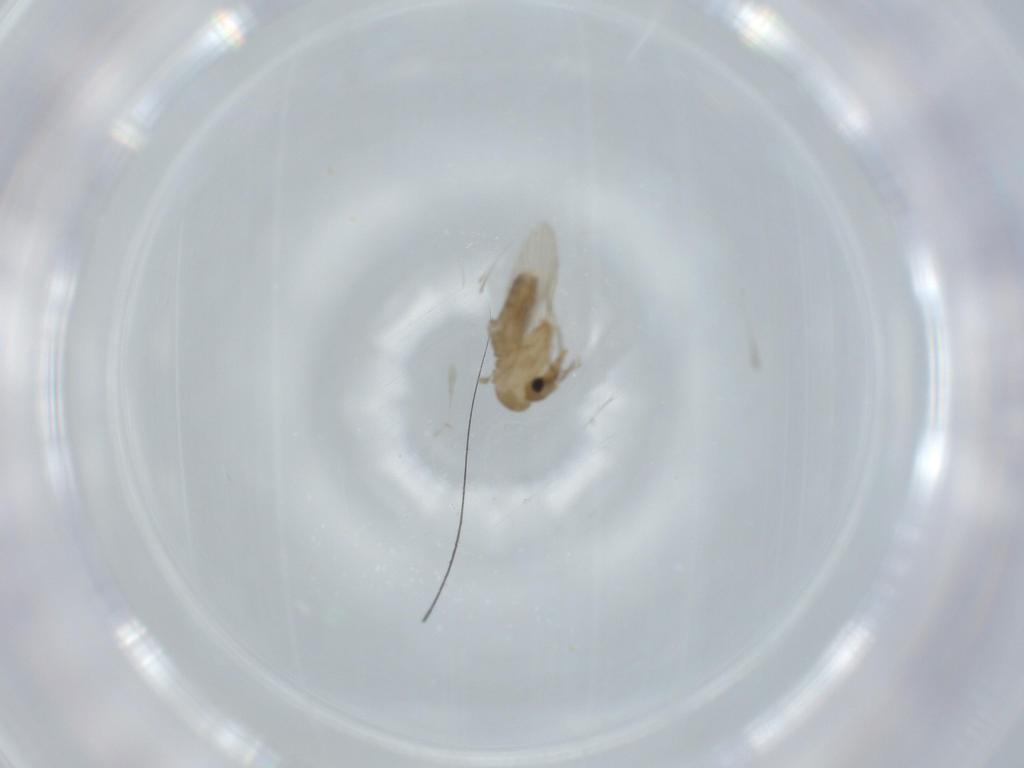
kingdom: Animalia
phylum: Arthropoda
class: Insecta
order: Diptera
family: Psychodidae
